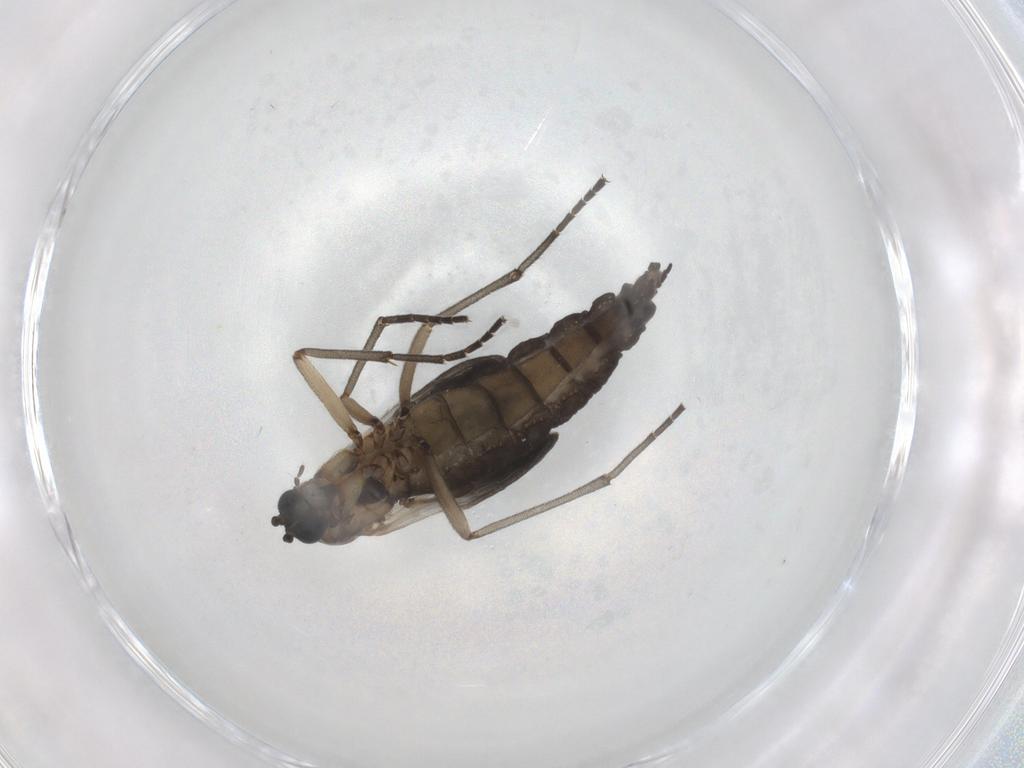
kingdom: Animalia
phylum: Arthropoda
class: Insecta
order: Diptera
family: Sciaridae
